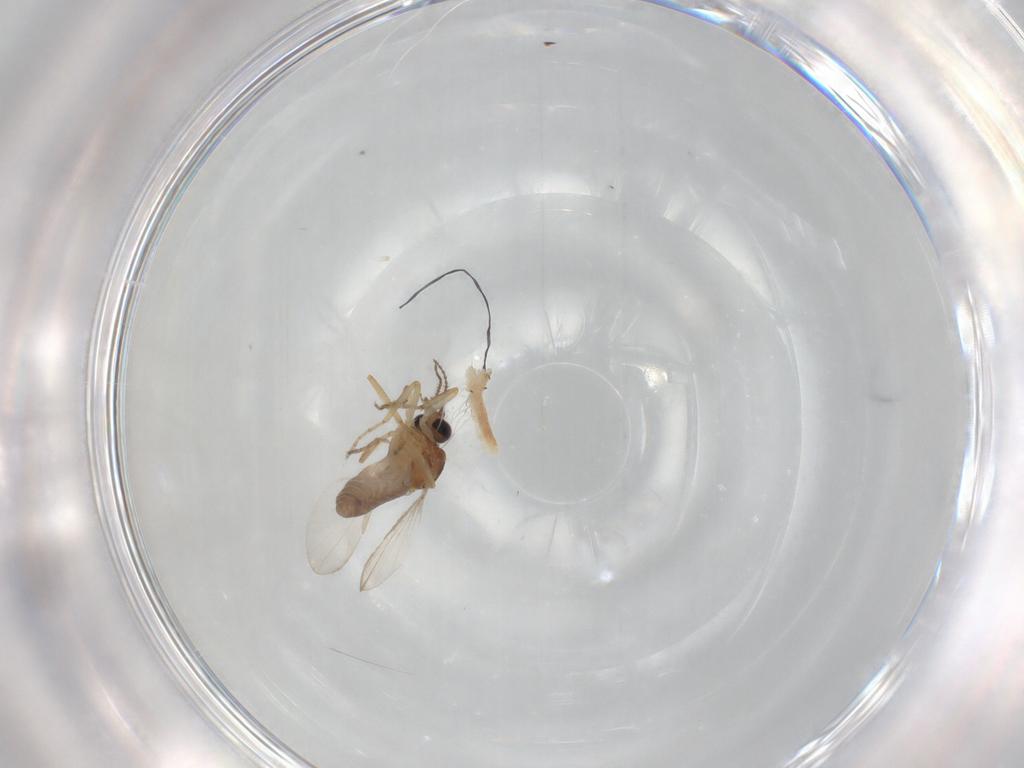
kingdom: Animalia
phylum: Arthropoda
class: Insecta
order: Diptera
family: Ceratopogonidae
